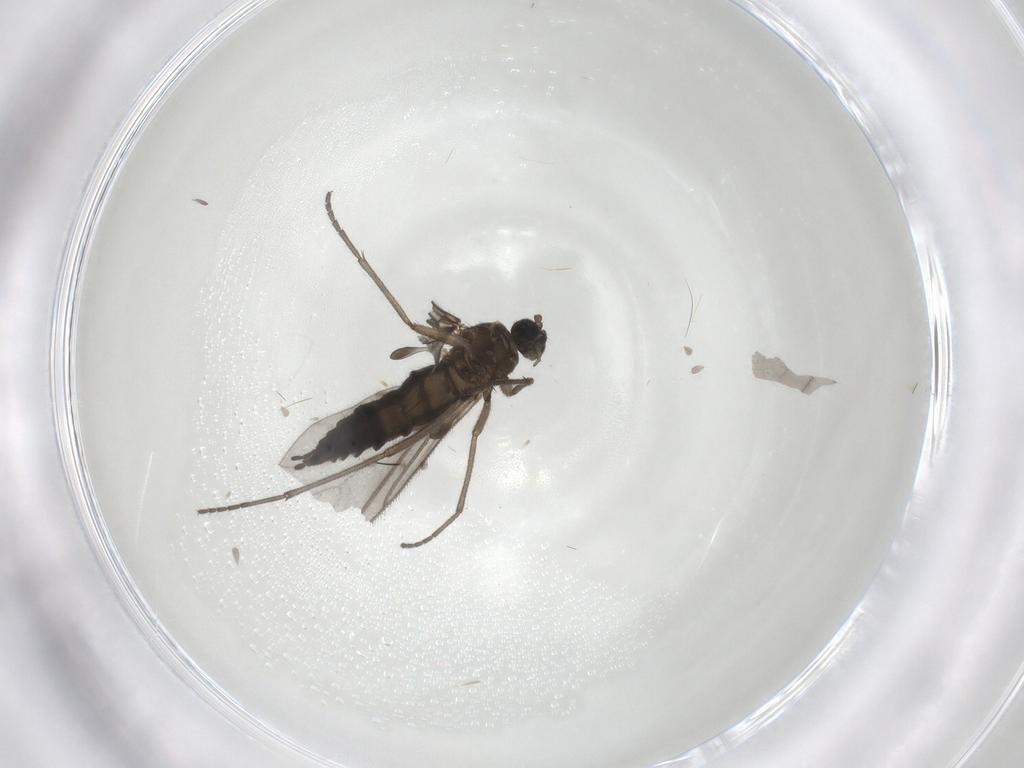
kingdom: Animalia
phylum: Arthropoda
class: Insecta
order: Diptera
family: Sciaridae
